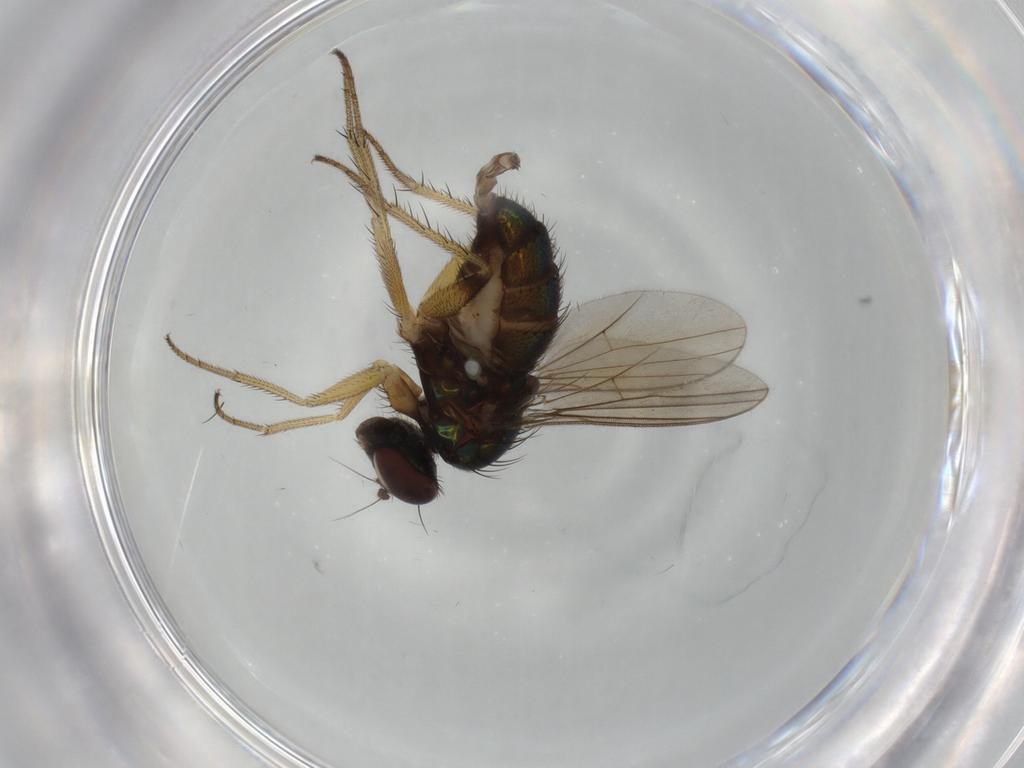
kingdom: Animalia
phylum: Arthropoda
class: Insecta
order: Diptera
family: Dolichopodidae
